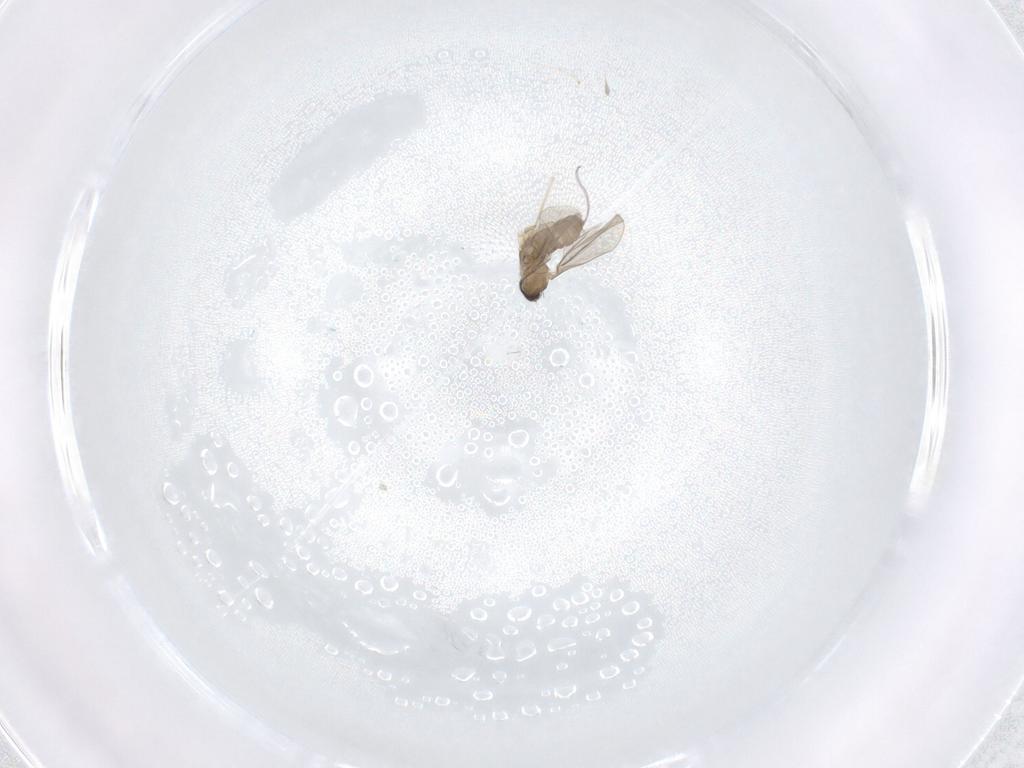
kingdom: Animalia
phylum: Arthropoda
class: Insecta
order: Diptera
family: Cecidomyiidae
